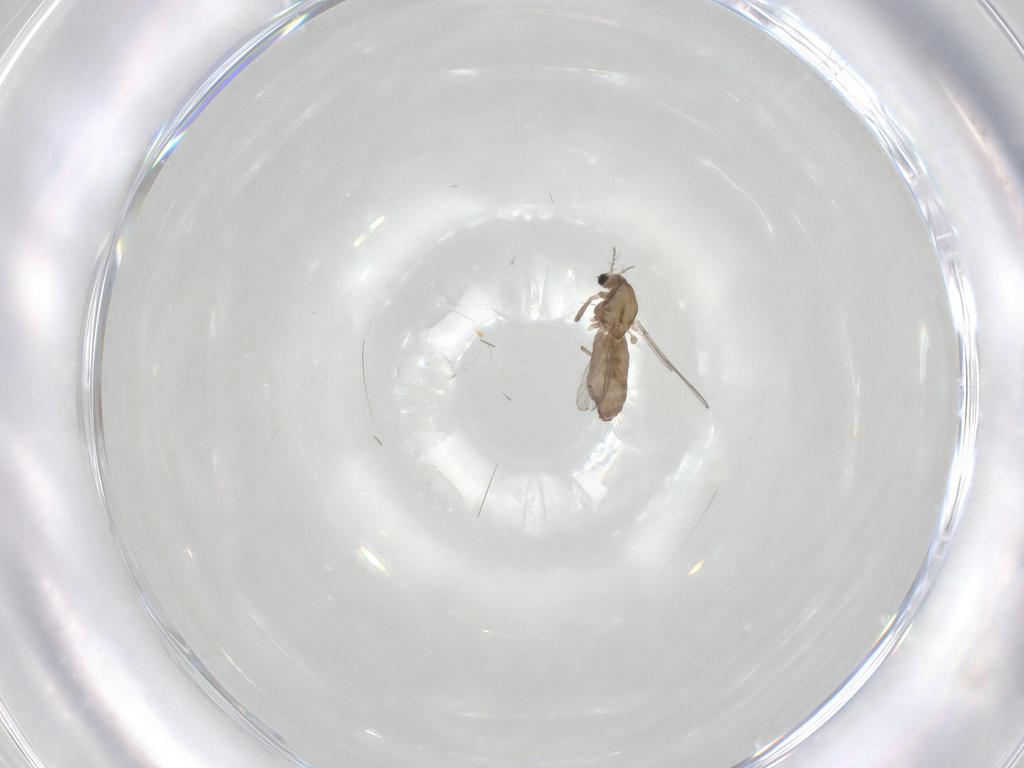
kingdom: Animalia
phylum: Arthropoda
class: Insecta
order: Diptera
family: Chironomidae
